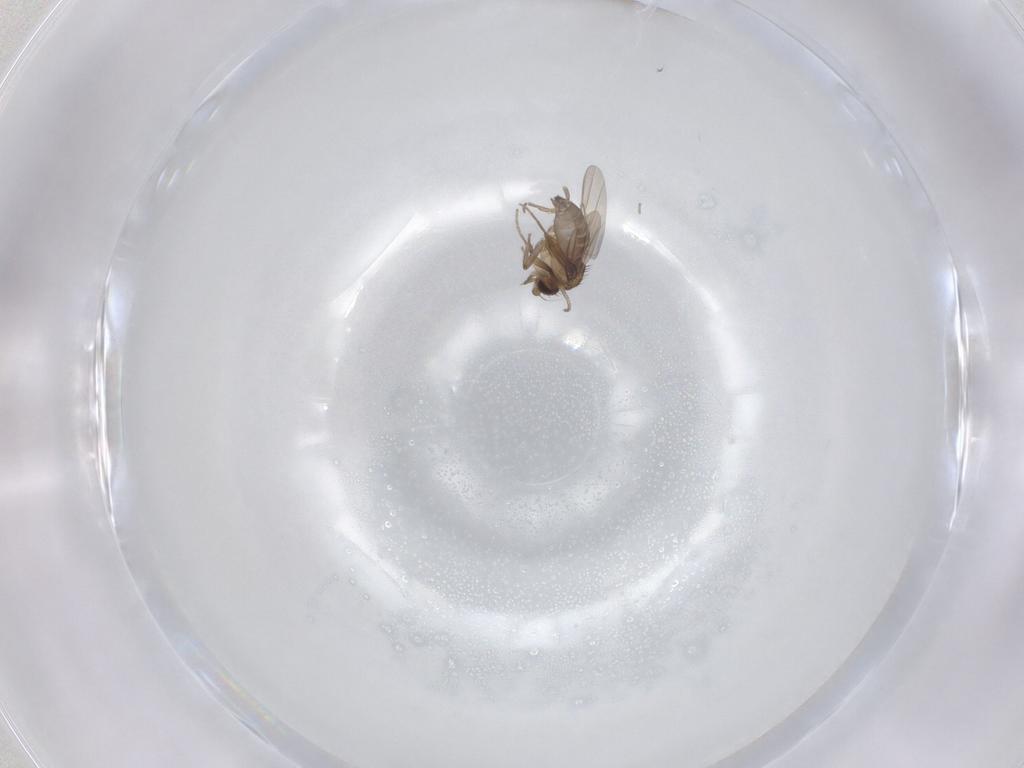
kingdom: Animalia
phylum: Arthropoda
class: Insecta
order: Diptera
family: Phoridae
